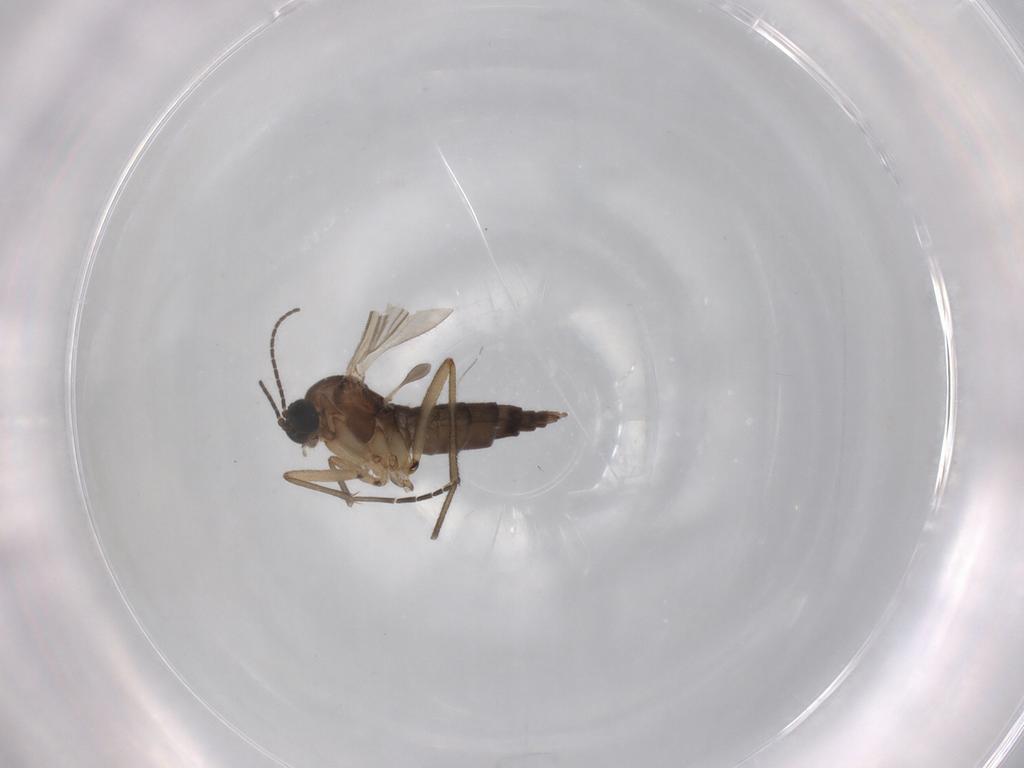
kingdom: Animalia
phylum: Arthropoda
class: Insecta
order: Diptera
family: Sciaridae
